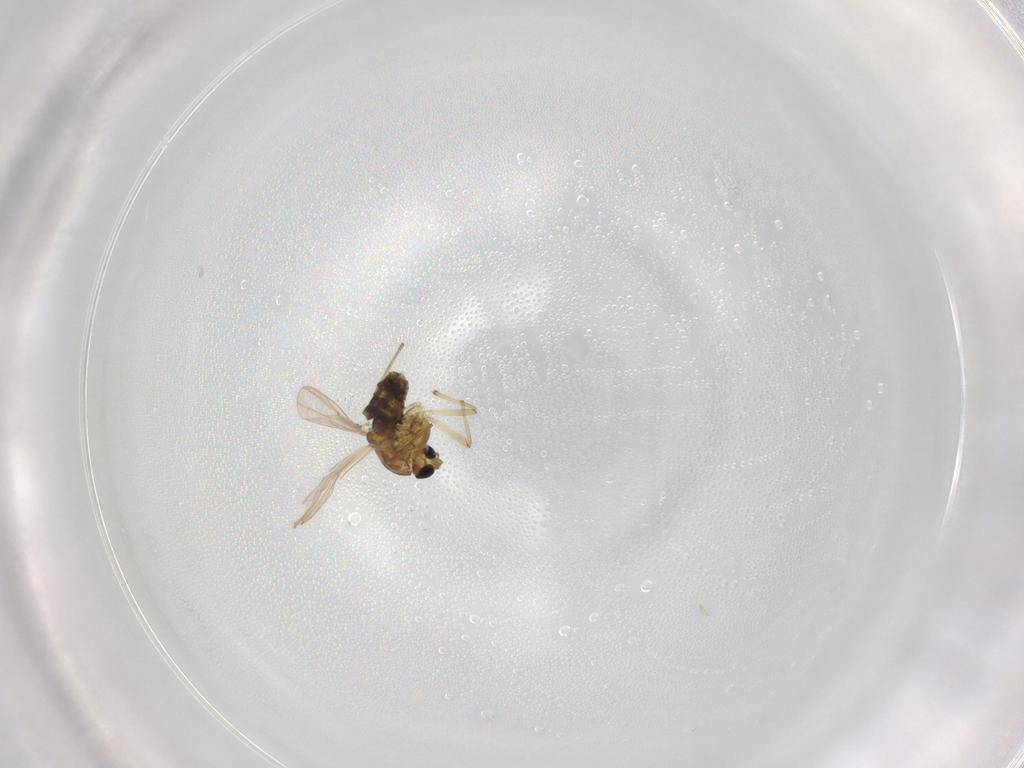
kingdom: Animalia
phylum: Arthropoda
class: Insecta
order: Diptera
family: Chironomidae
